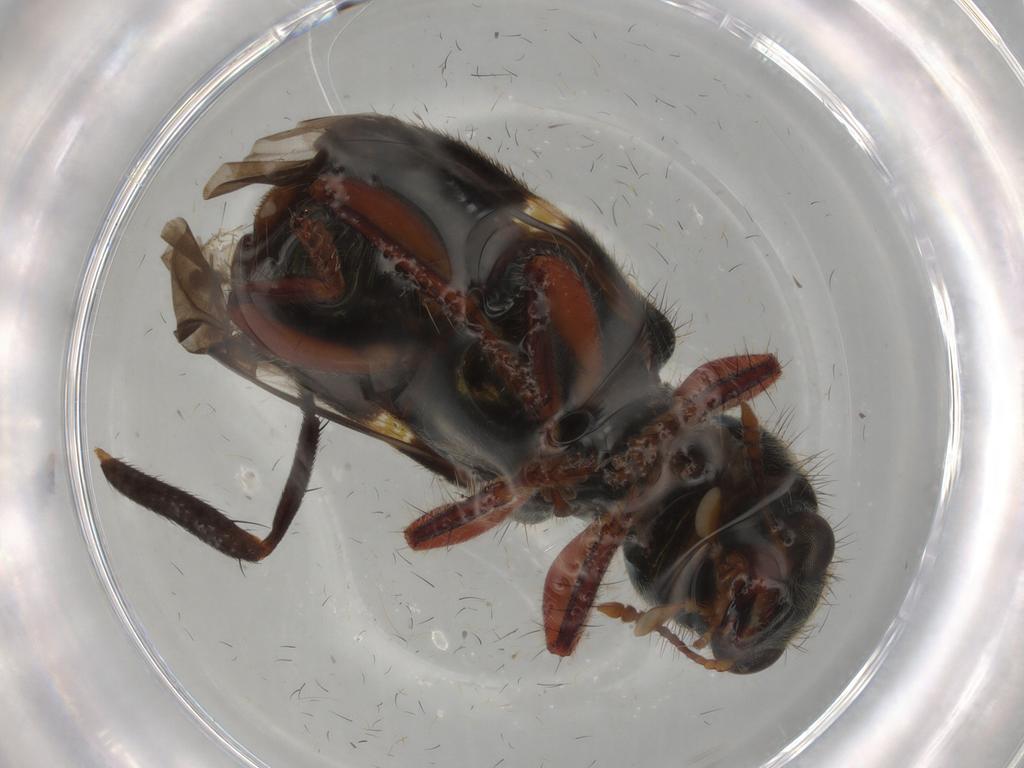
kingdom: Animalia
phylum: Arthropoda
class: Insecta
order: Coleoptera
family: Cleridae
